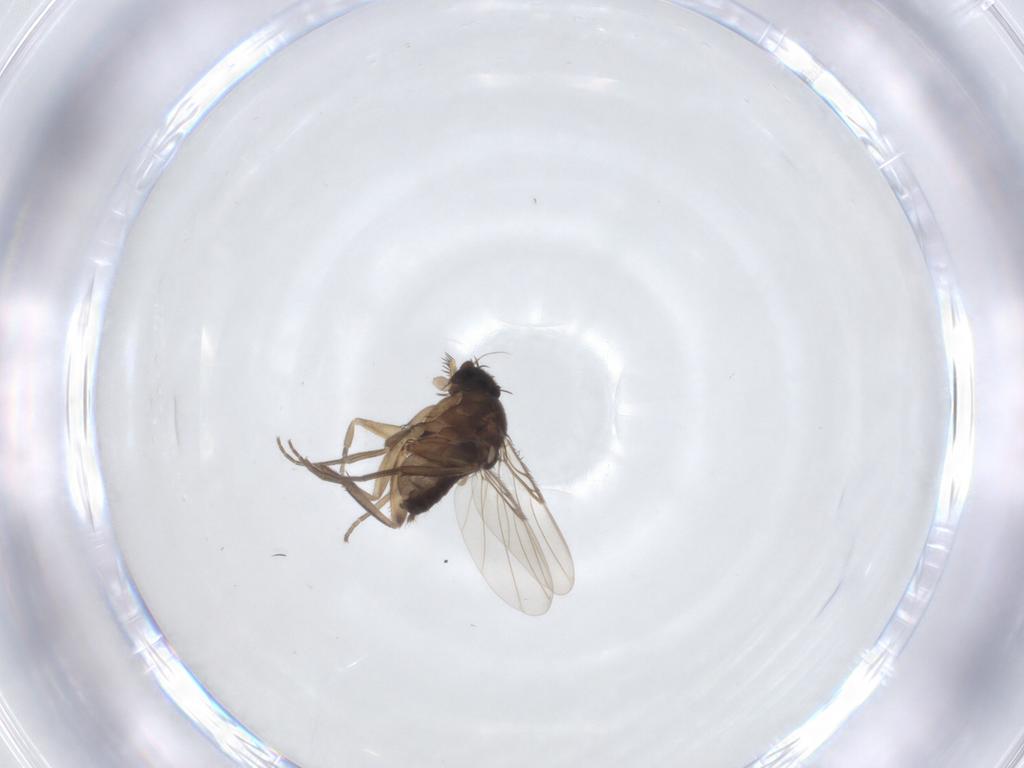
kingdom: Animalia
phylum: Arthropoda
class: Insecta
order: Diptera
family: Phoridae
